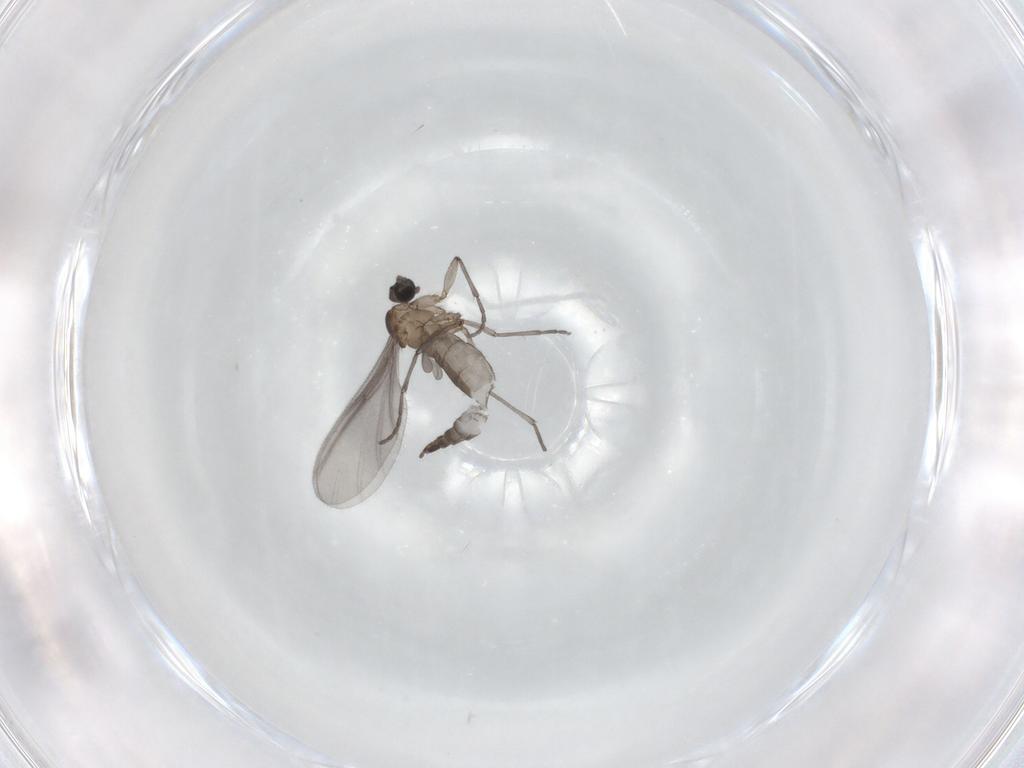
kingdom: Animalia
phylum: Arthropoda
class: Insecta
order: Diptera
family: Sciaridae
